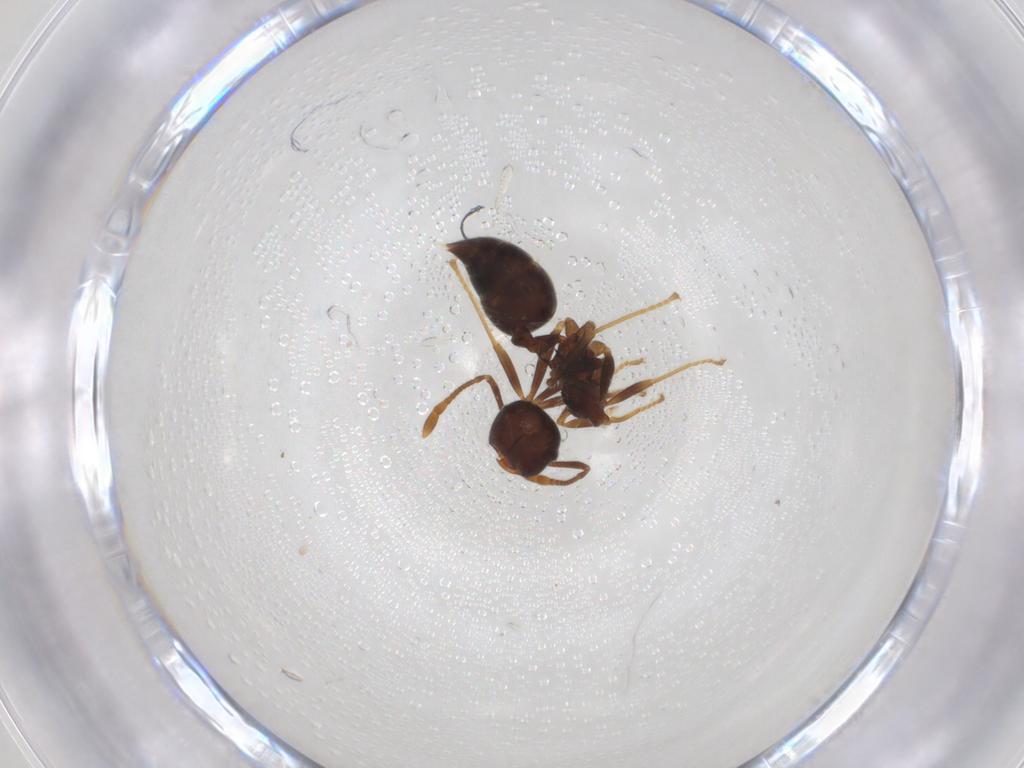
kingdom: Animalia
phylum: Arthropoda
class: Insecta
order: Hymenoptera
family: Formicidae
